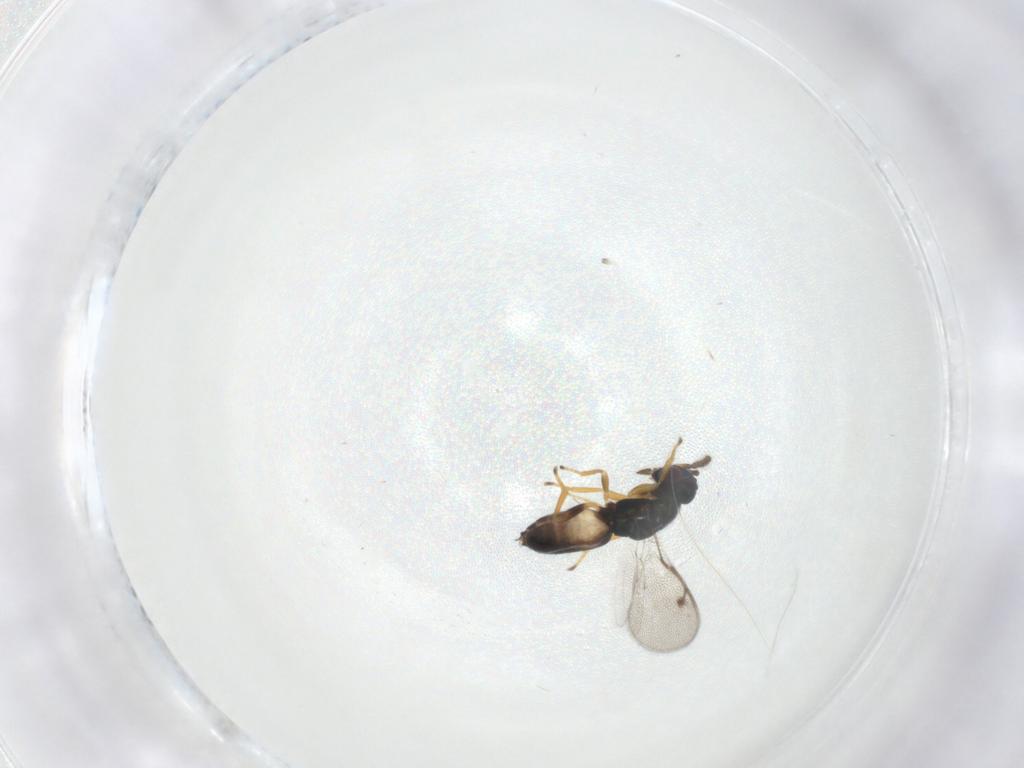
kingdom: Animalia
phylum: Arthropoda
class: Insecta
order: Hymenoptera
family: Pirenidae
